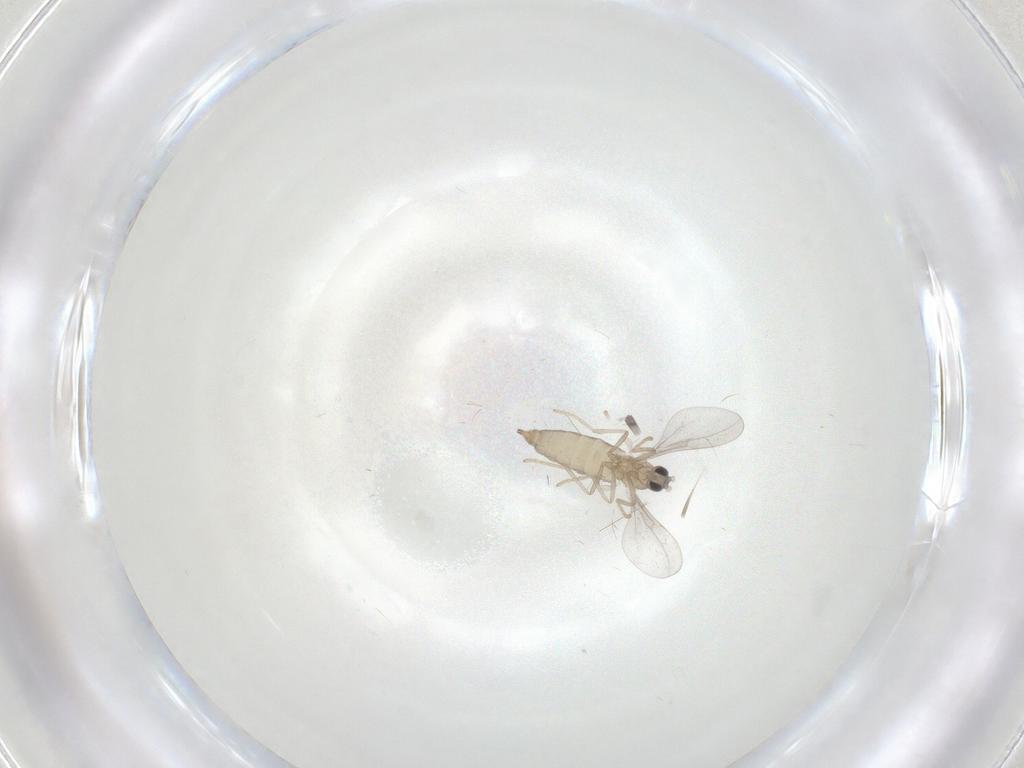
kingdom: Animalia
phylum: Arthropoda
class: Insecta
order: Diptera
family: Cecidomyiidae
